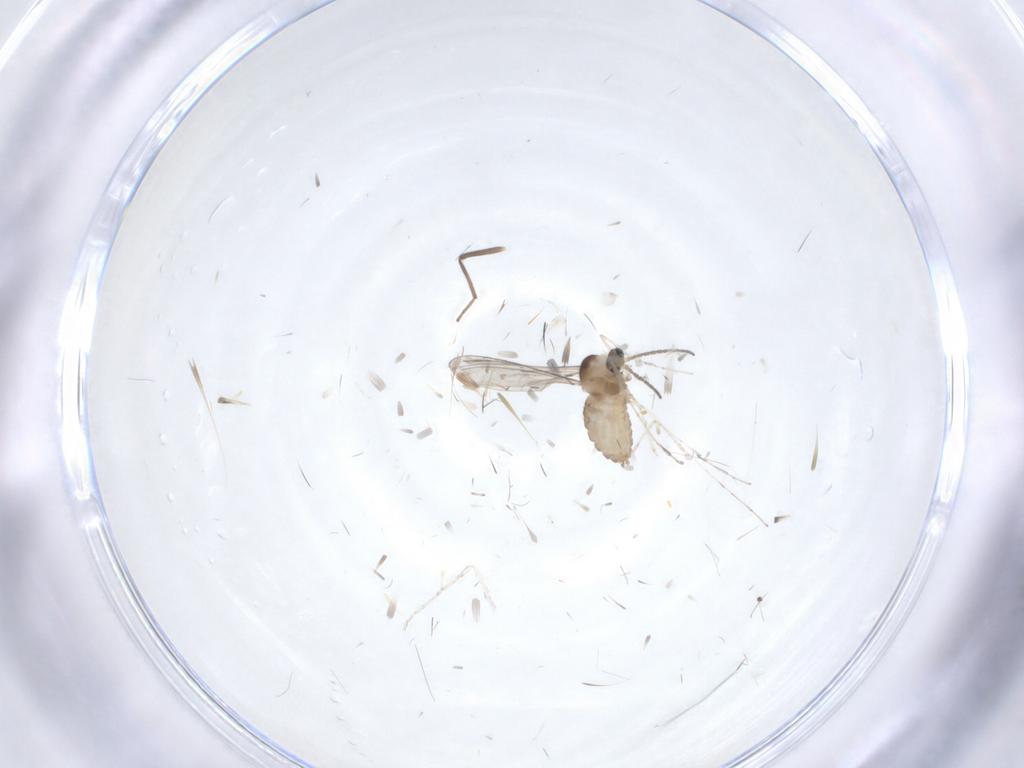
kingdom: Animalia
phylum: Arthropoda
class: Insecta
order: Diptera
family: Cecidomyiidae
